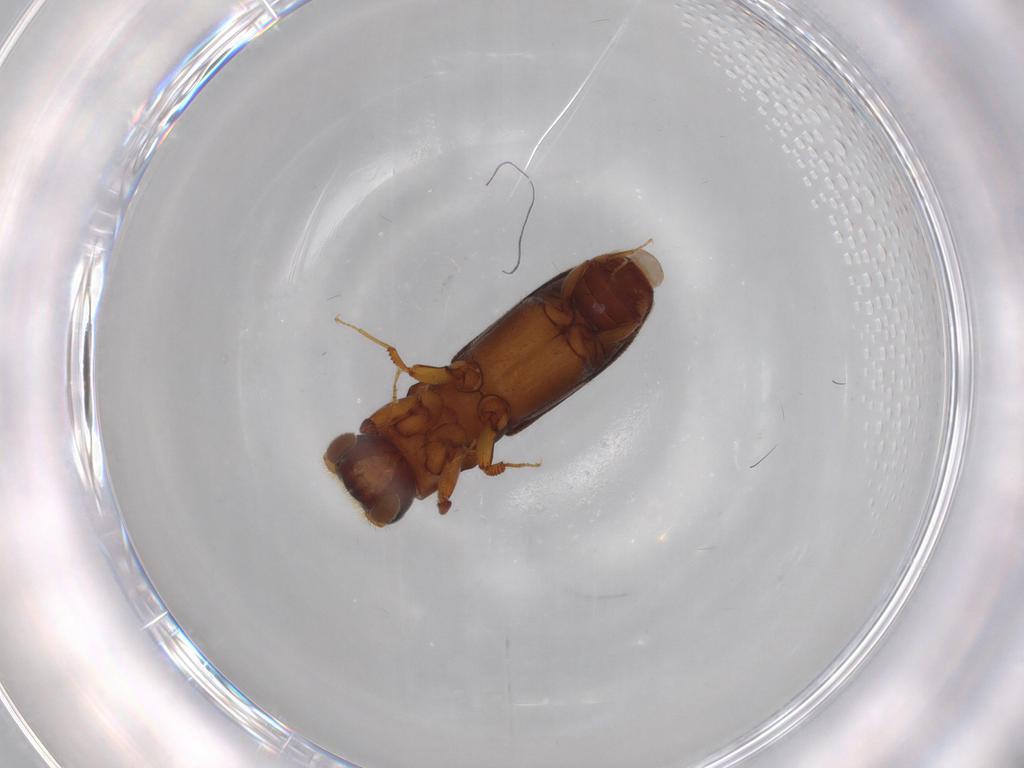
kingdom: Animalia
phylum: Arthropoda
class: Insecta
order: Coleoptera
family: Curculionidae
